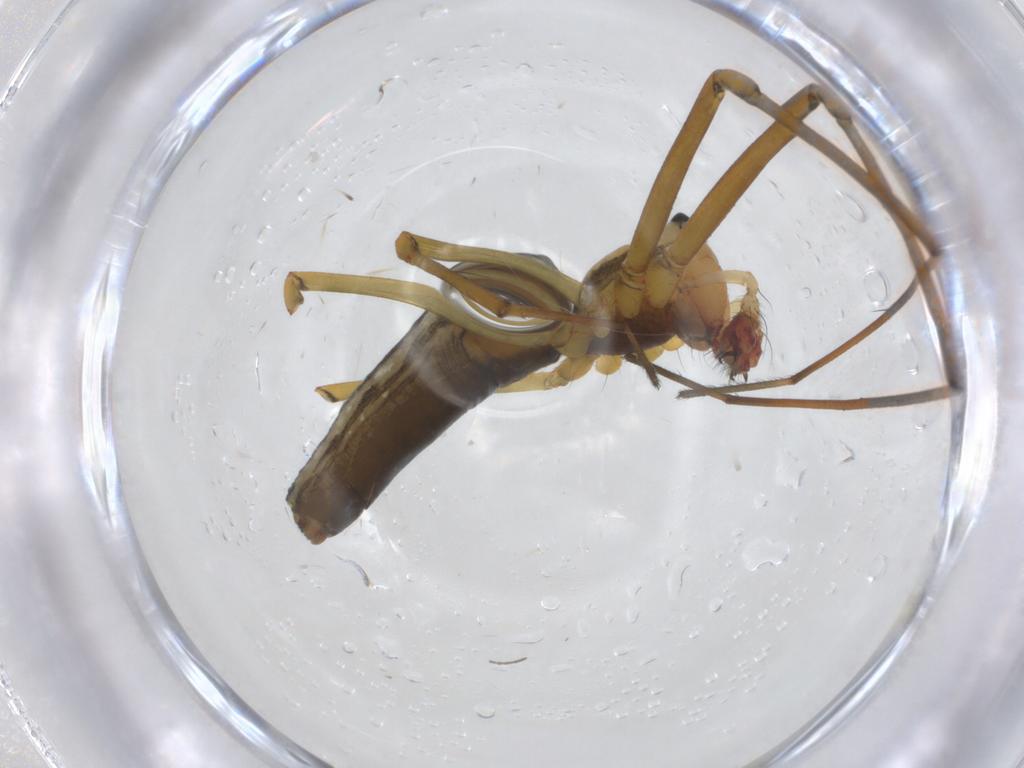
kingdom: Animalia
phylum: Arthropoda
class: Arachnida
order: Araneae
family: Linyphiidae
